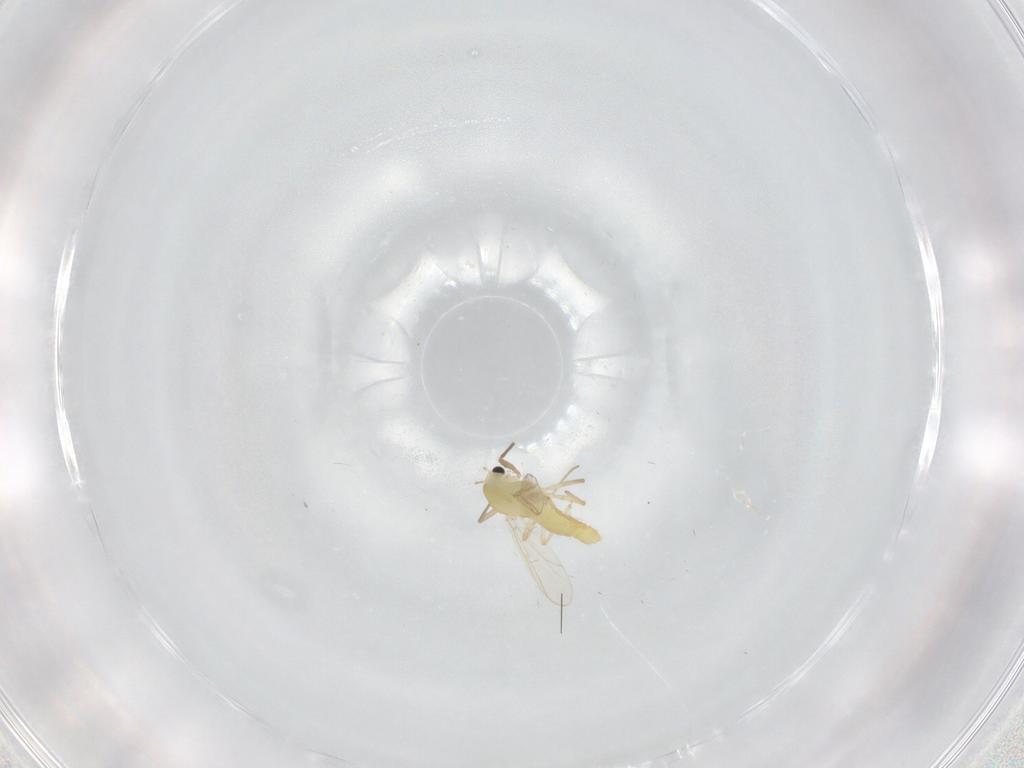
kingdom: Animalia
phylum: Arthropoda
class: Insecta
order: Diptera
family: Chironomidae
